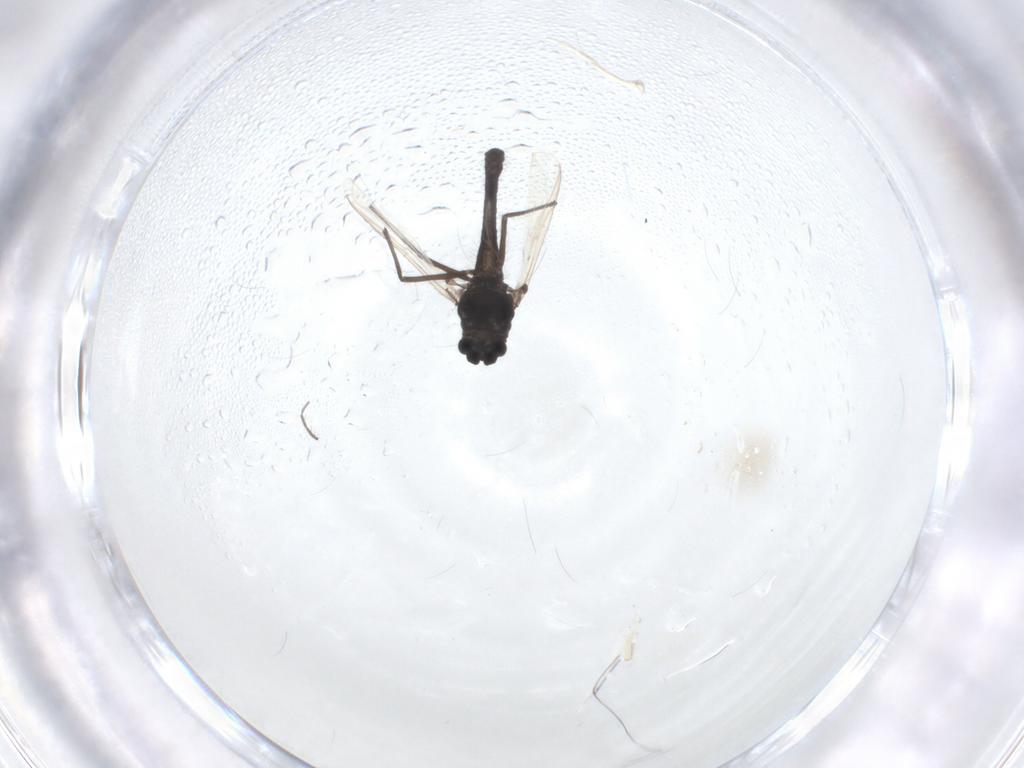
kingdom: Animalia
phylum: Arthropoda
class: Insecta
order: Diptera
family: Chironomidae
